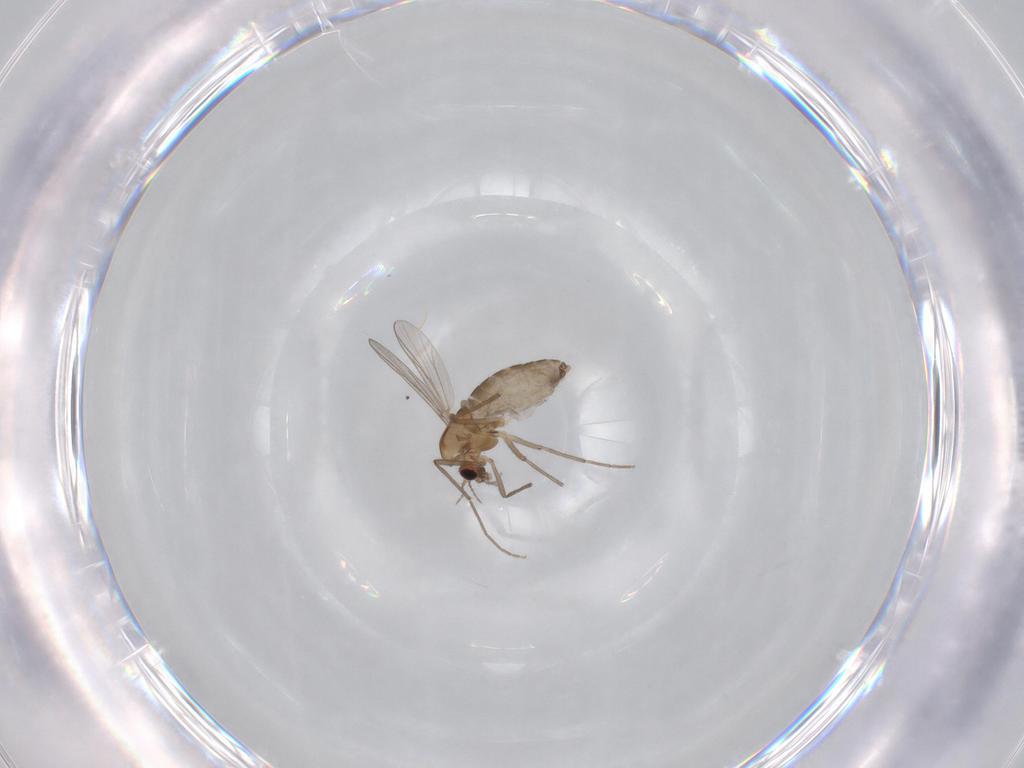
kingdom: Animalia
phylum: Arthropoda
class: Insecta
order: Diptera
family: Chironomidae
